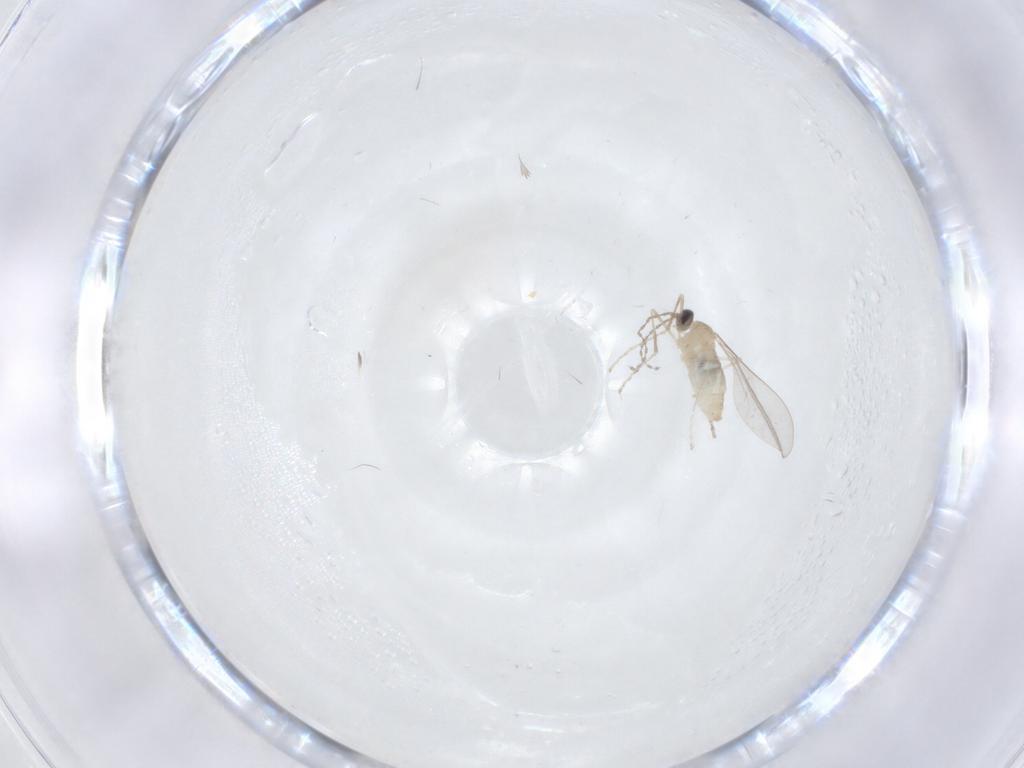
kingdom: Animalia
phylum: Arthropoda
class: Insecta
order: Diptera
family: Cecidomyiidae
